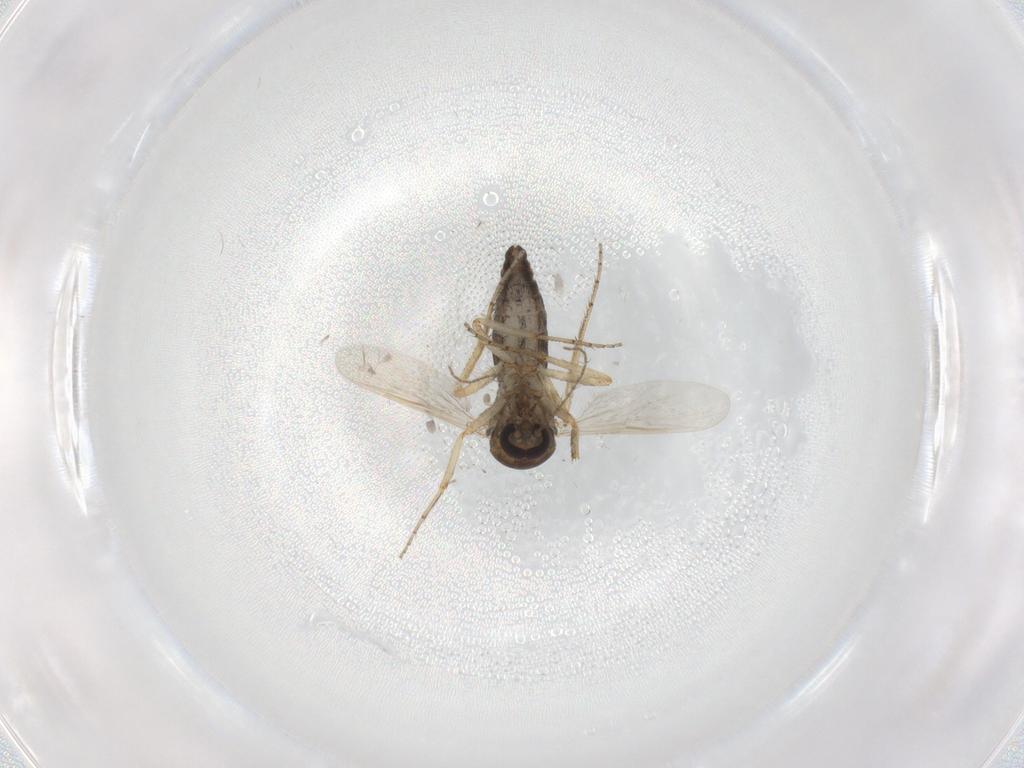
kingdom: Animalia
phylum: Arthropoda
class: Insecta
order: Diptera
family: Ceratopogonidae
